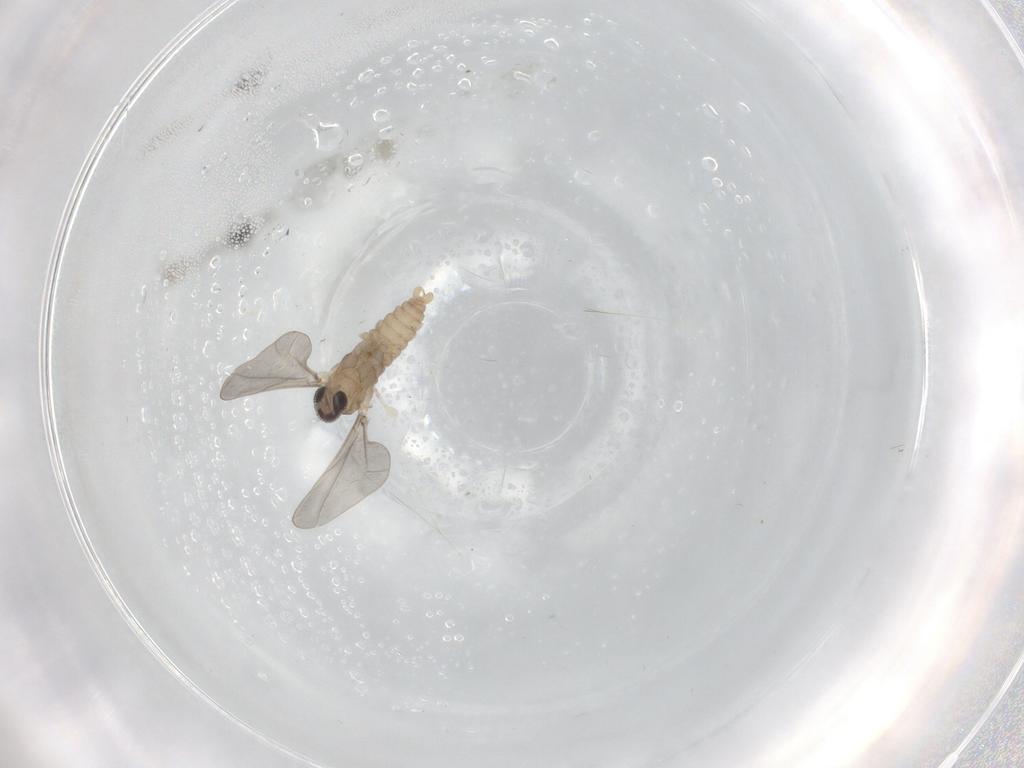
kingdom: Animalia
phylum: Arthropoda
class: Insecta
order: Diptera
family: Cecidomyiidae
